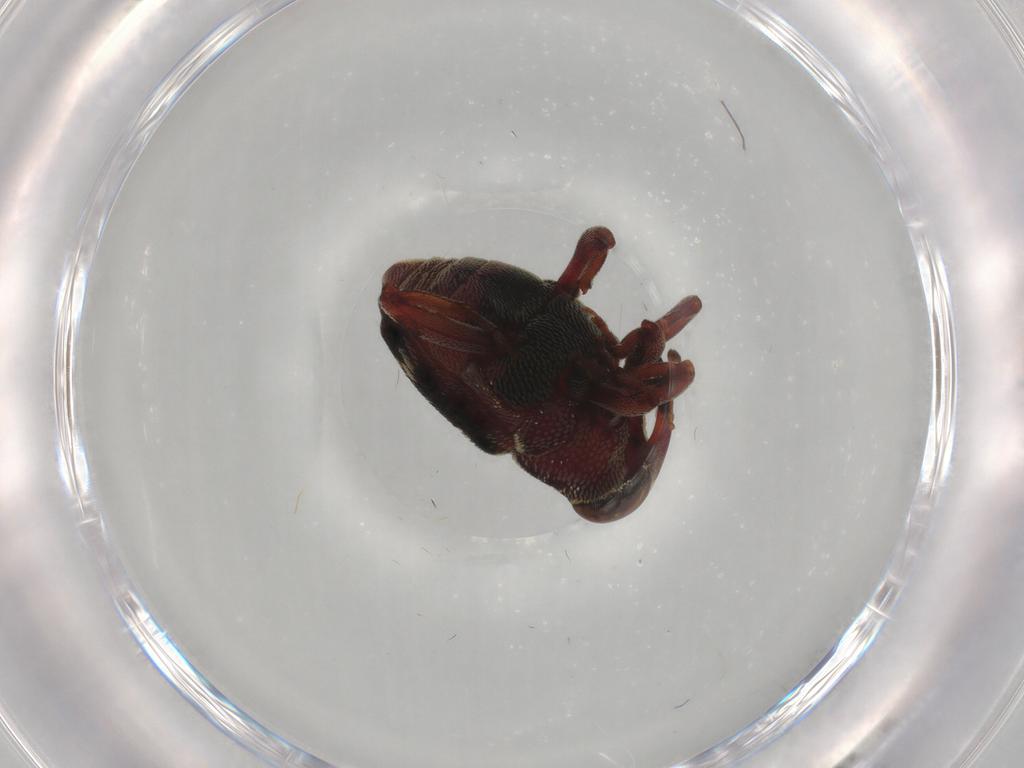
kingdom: Animalia
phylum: Arthropoda
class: Insecta
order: Coleoptera
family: Curculionidae
